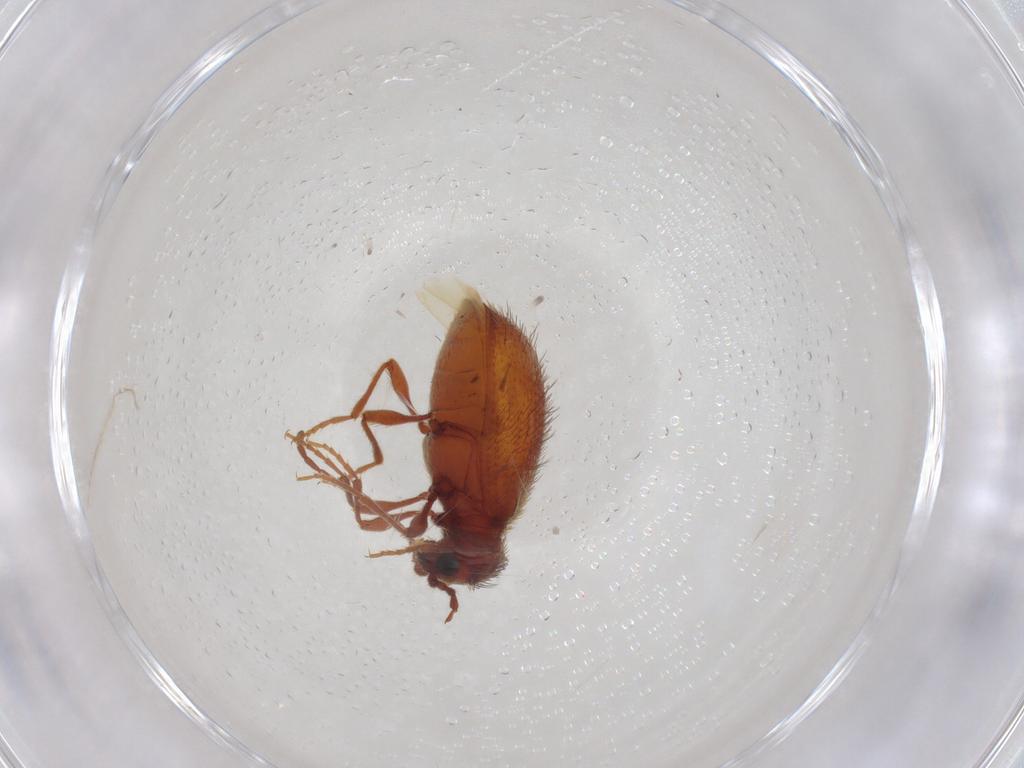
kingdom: Animalia
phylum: Arthropoda
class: Insecta
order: Coleoptera
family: Ptinidae
